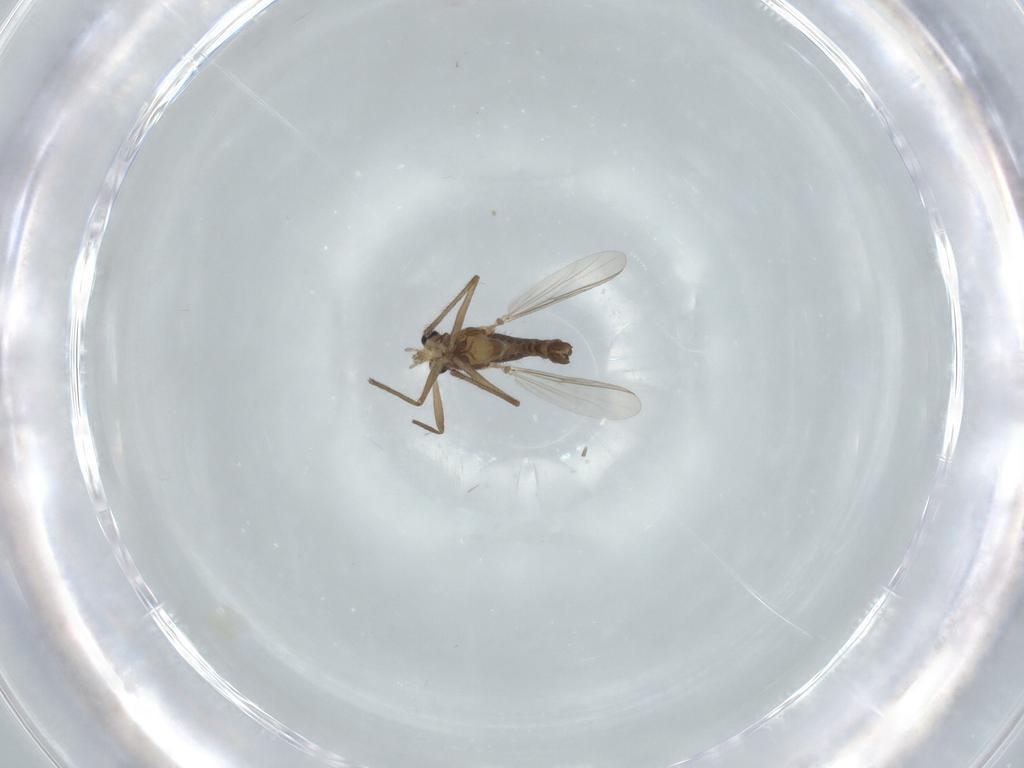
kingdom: Animalia
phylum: Arthropoda
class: Insecta
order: Diptera
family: Chironomidae
